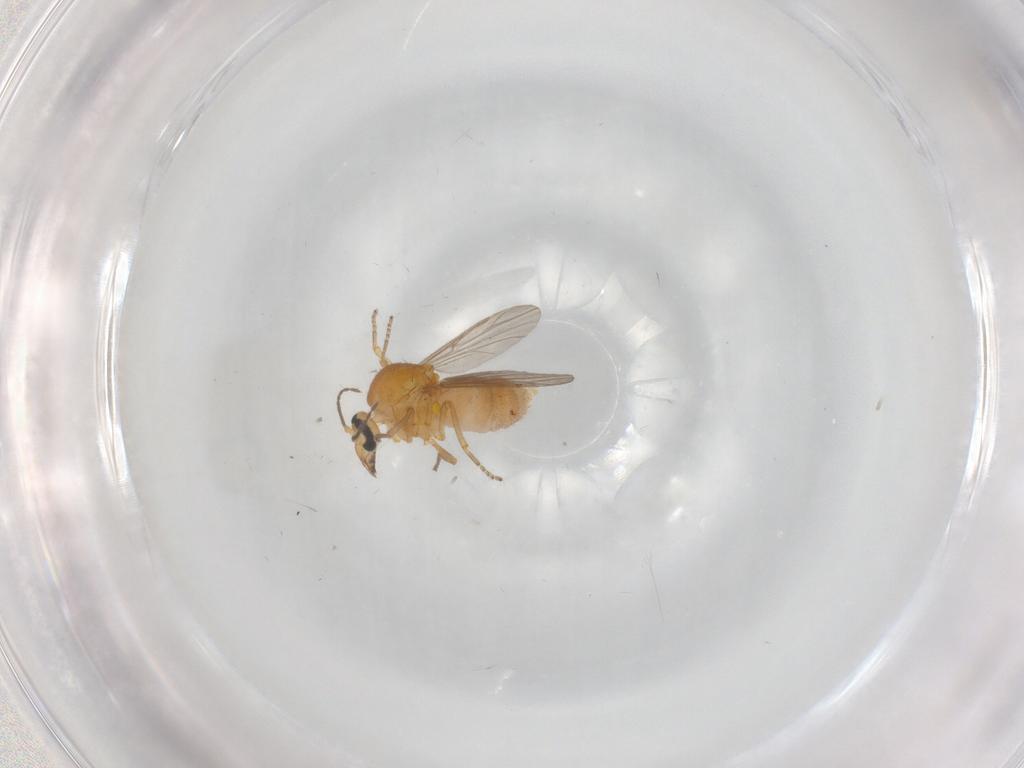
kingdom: Animalia
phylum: Arthropoda
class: Insecta
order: Diptera
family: Ceratopogonidae
